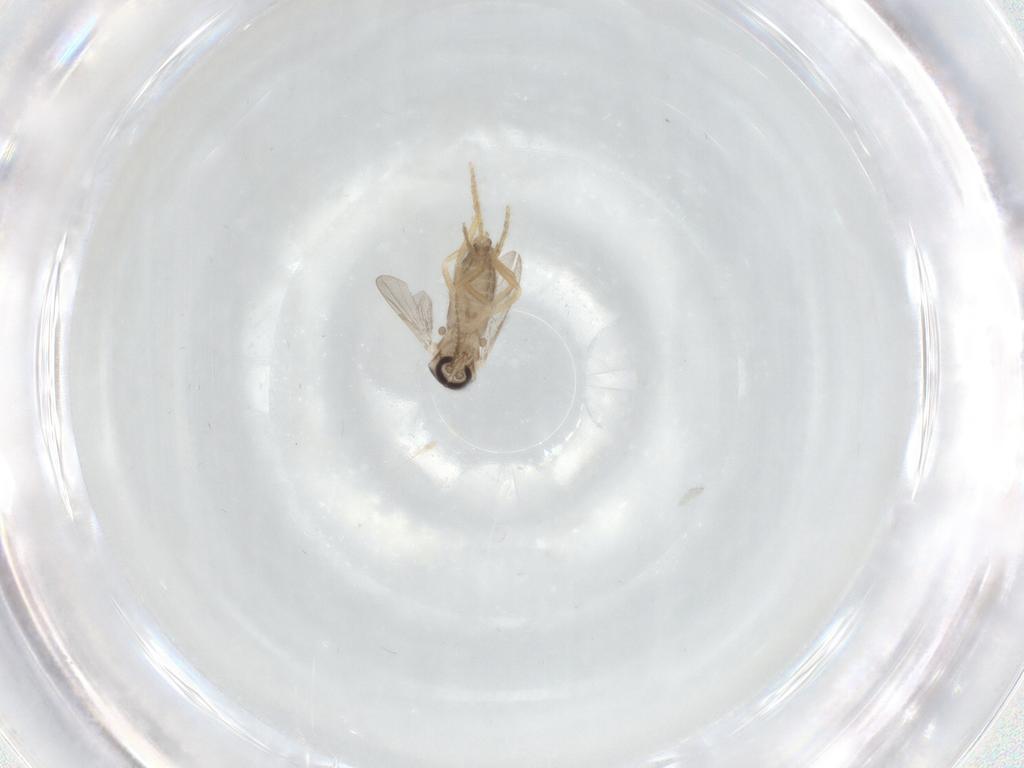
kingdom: Animalia
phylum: Arthropoda
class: Insecta
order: Diptera
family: Ceratopogonidae
